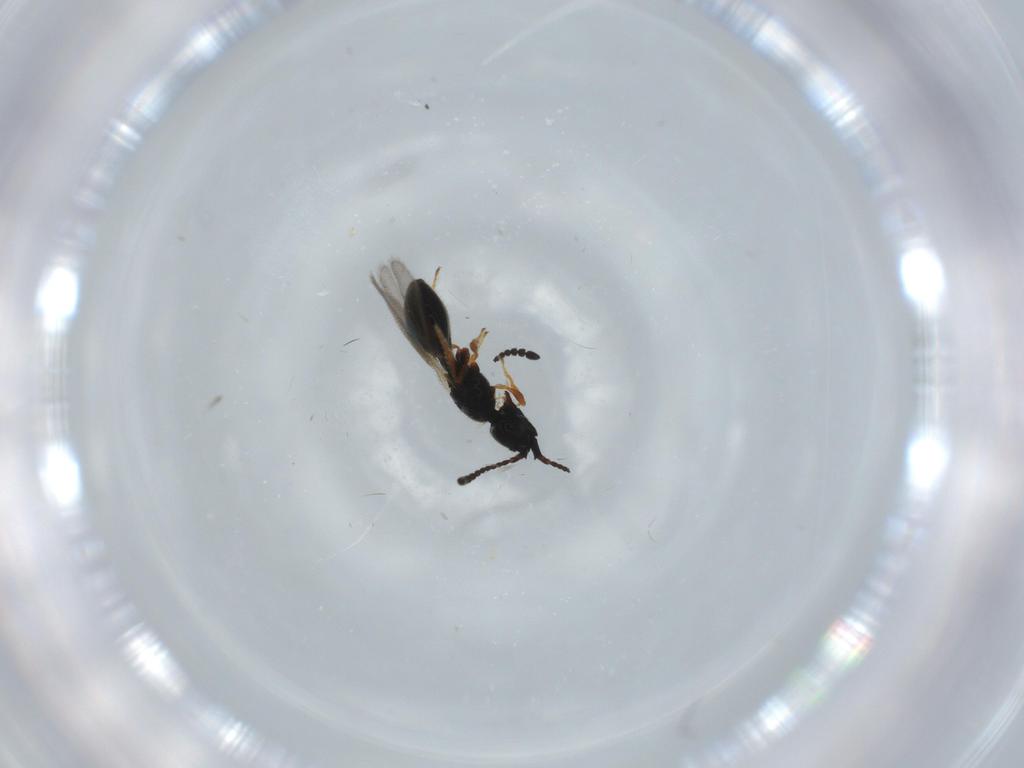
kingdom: Animalia
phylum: Arthropoda
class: Insecta
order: Hymenoptera
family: Diapriidae
